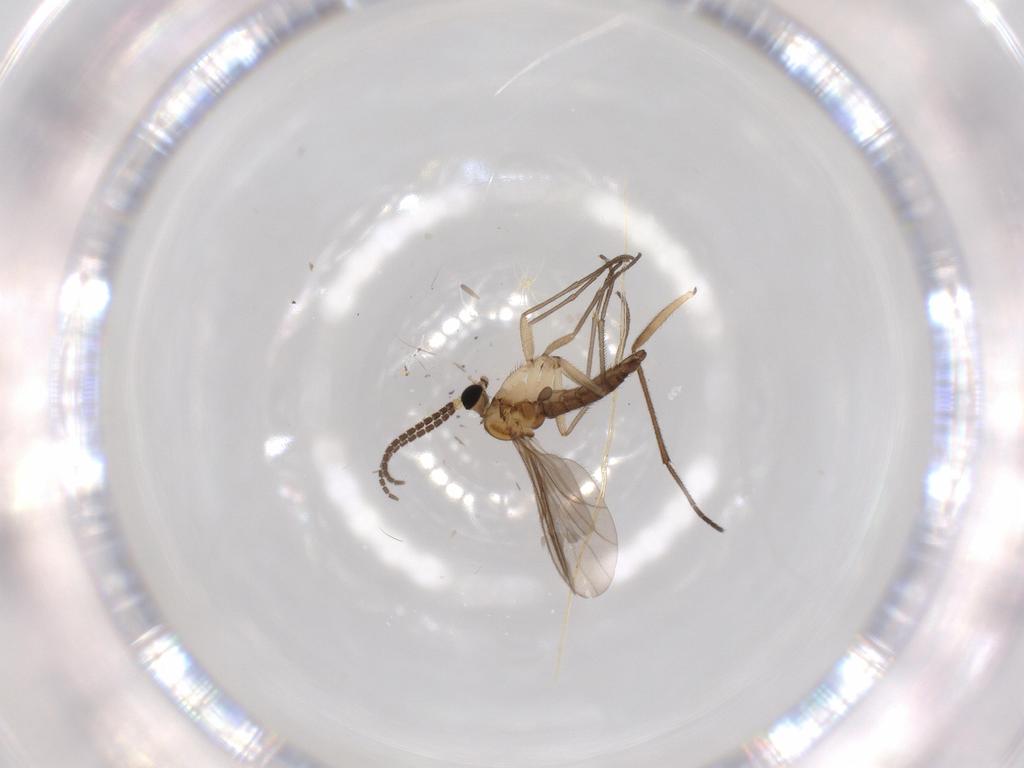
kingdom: Animalia
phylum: Arthropoda
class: Insecta
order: Diptera
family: Sciaridae
